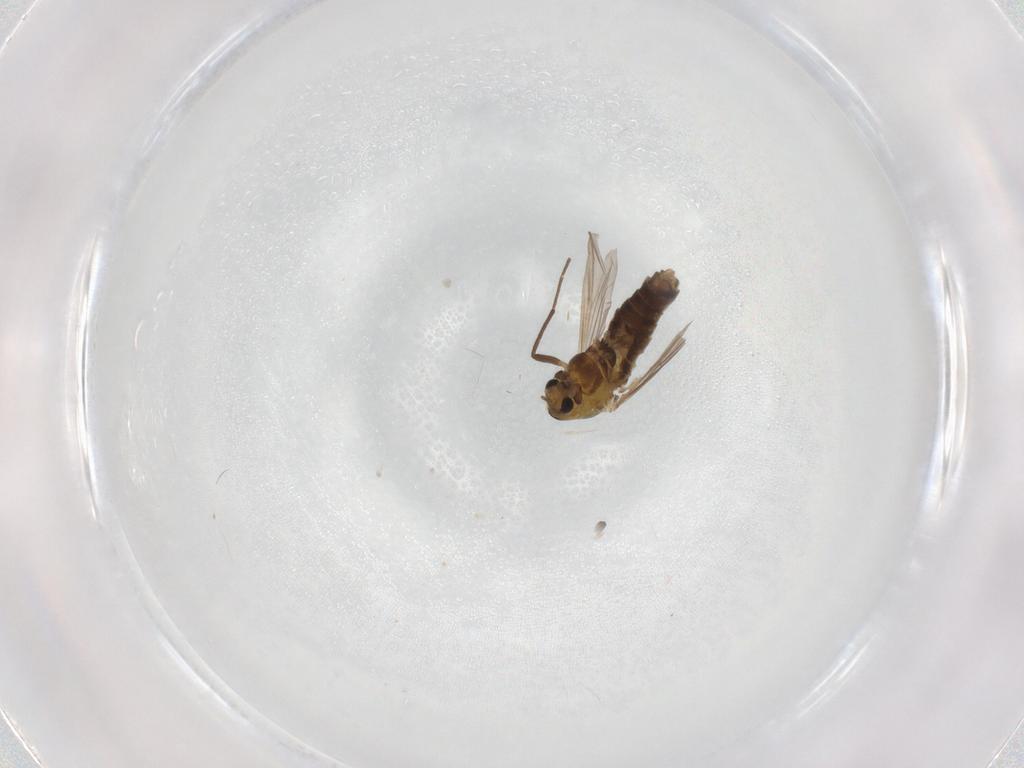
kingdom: Animalia
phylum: Arthropoda
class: Insecta
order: Diptera
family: Chironomidae
